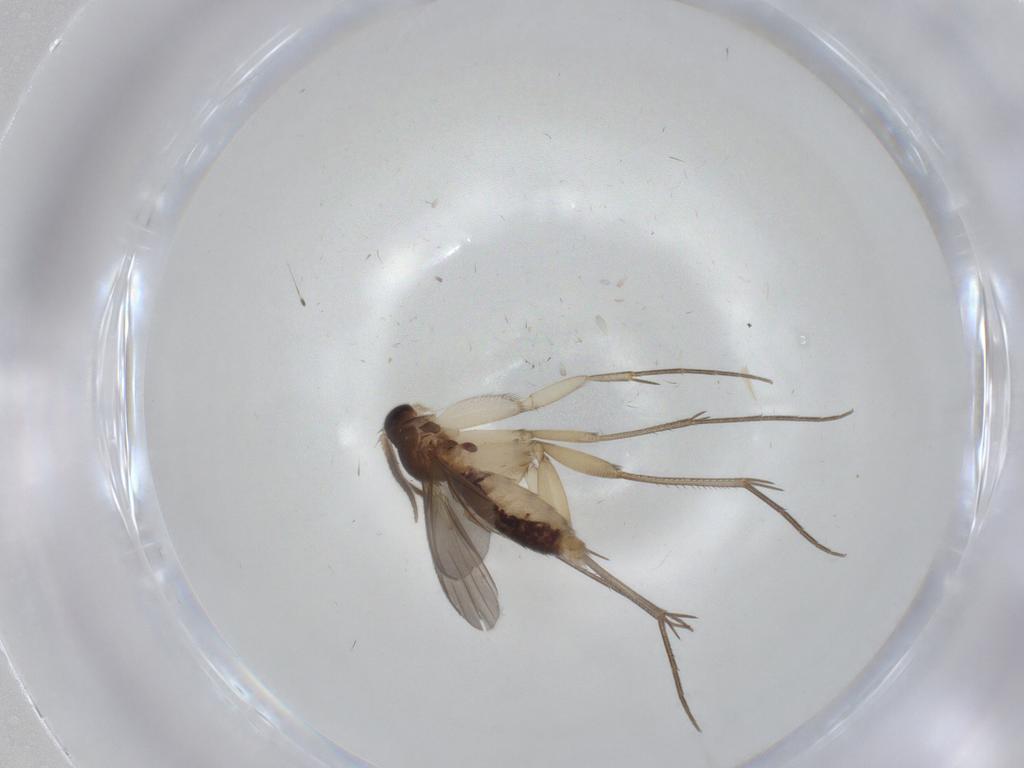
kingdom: Animalia
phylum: Arthropoda
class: Insecta
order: Diptera
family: Mycetophilidae
